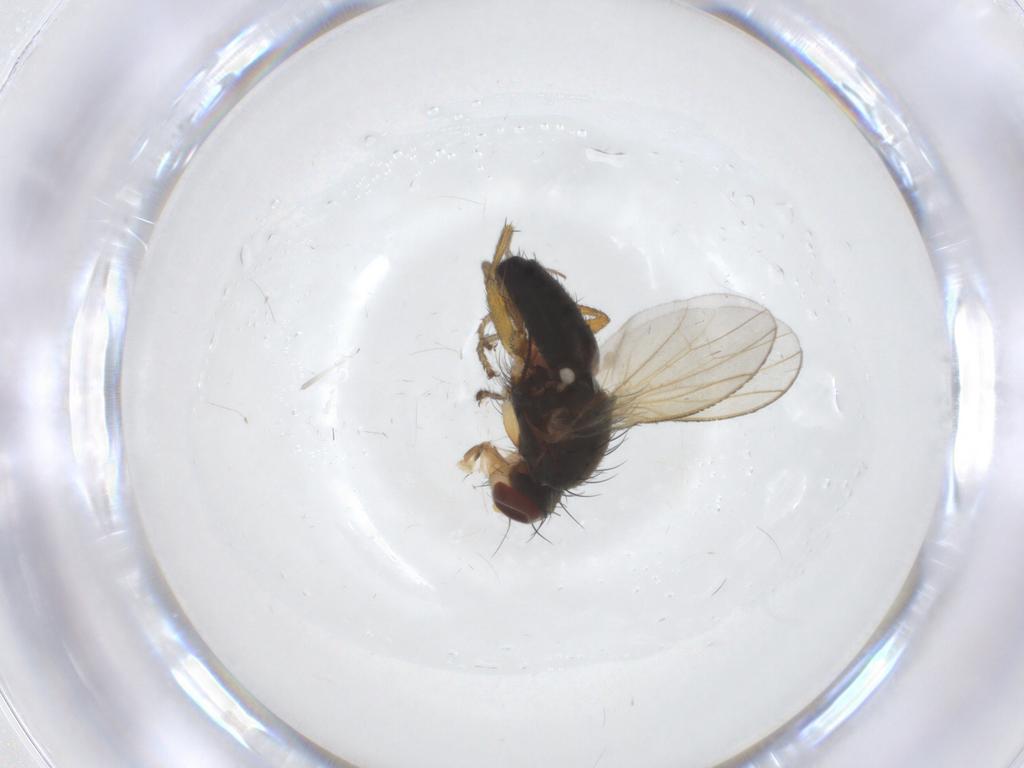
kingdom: Animalia
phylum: Arthropoda
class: Insecta
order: Diptera
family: Heleomyzidae
